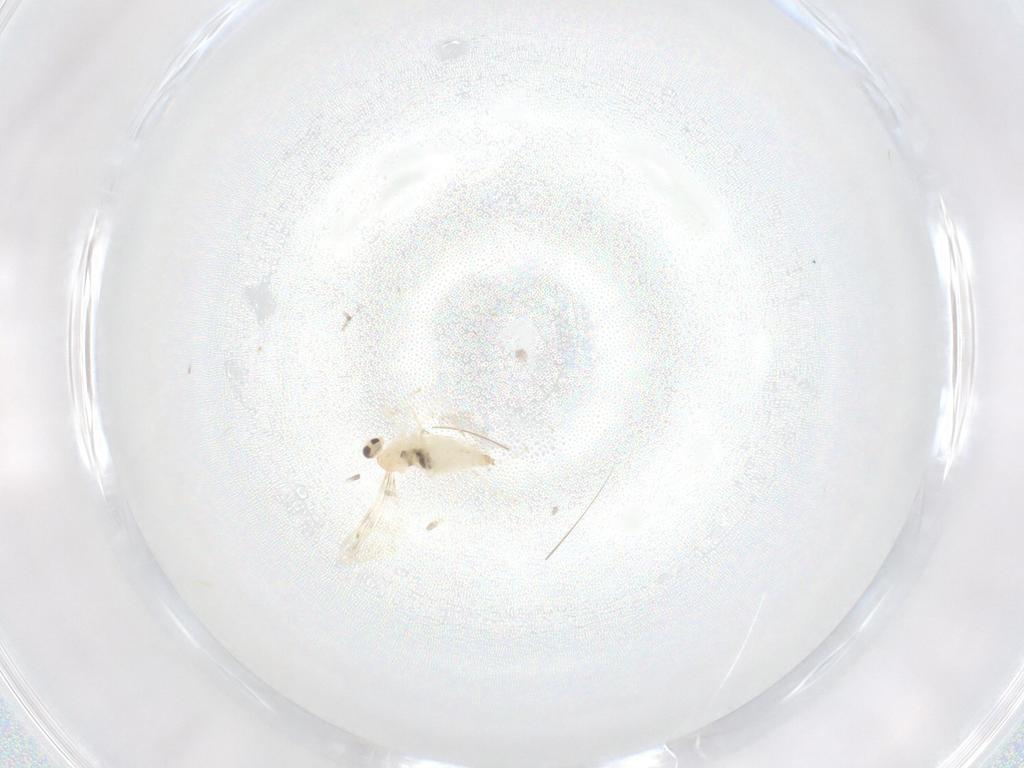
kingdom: Animalia
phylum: Arthropoda
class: Insecta
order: Diptera
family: Cecidomyiidae
